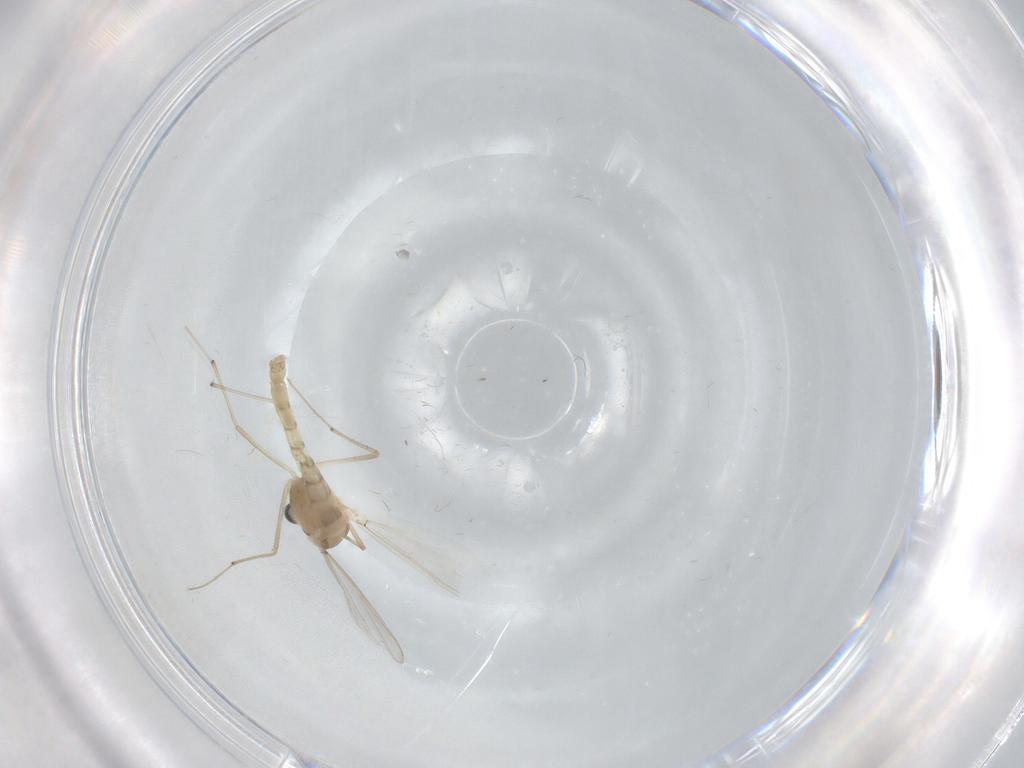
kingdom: Animalia
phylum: Arthropoda
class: Insecta
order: Diptera
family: Chironomidae
